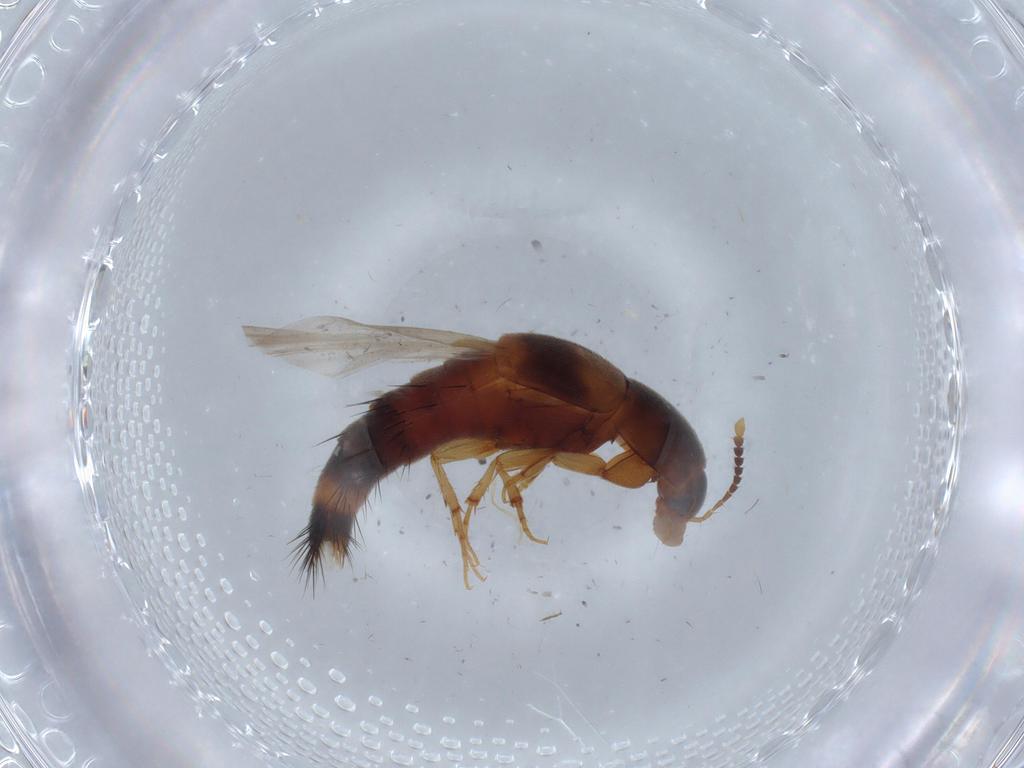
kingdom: Animalia
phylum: Arthropoda
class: Insecta
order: Coleoptera
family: Staphylinidae
